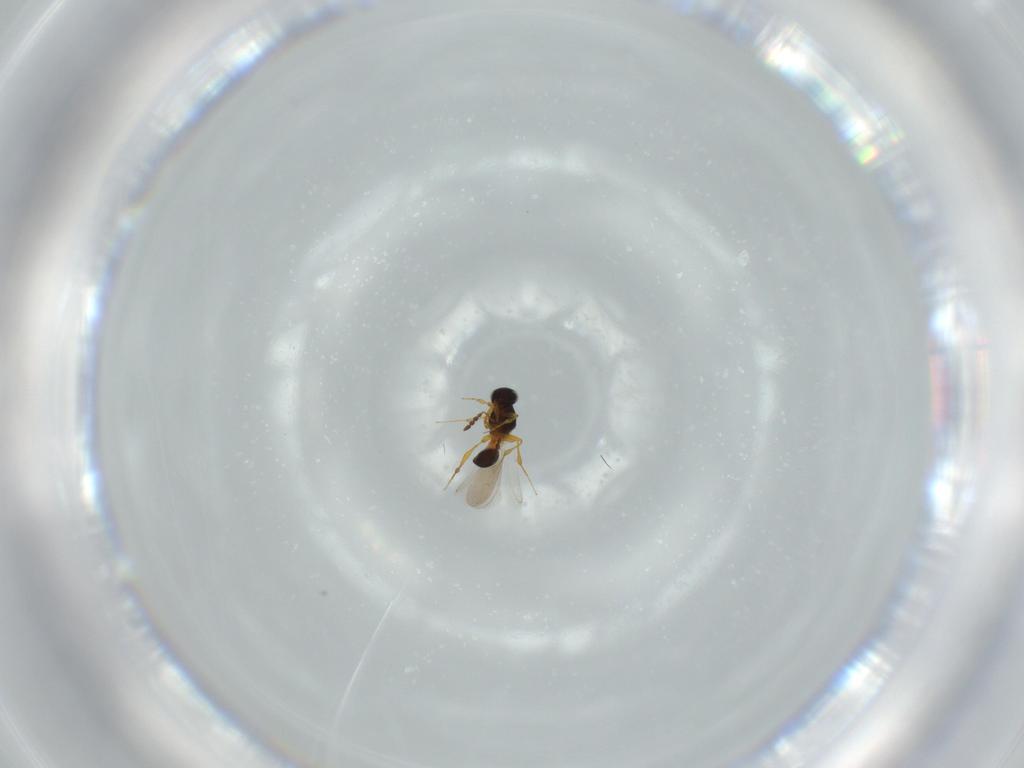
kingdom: Animalia
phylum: Arthropoda
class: Insecta
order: Hymenoptera
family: Platygastridae
